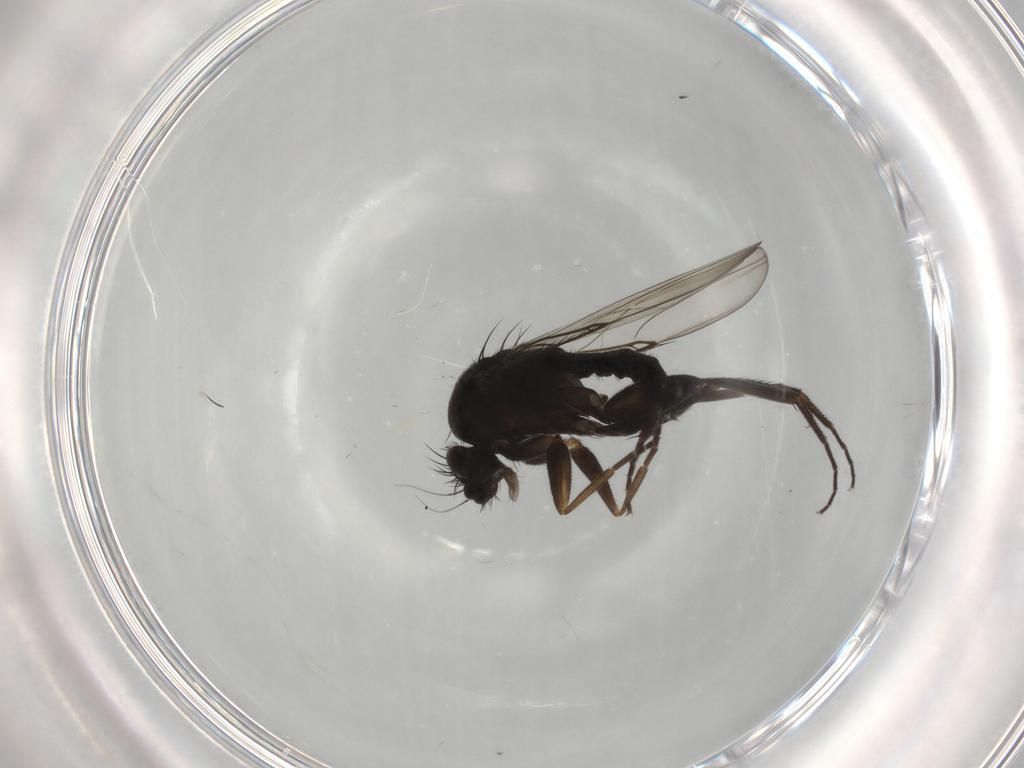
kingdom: Animalia
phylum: Arthropoda
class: Insecta
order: Diptera
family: Phoridae
